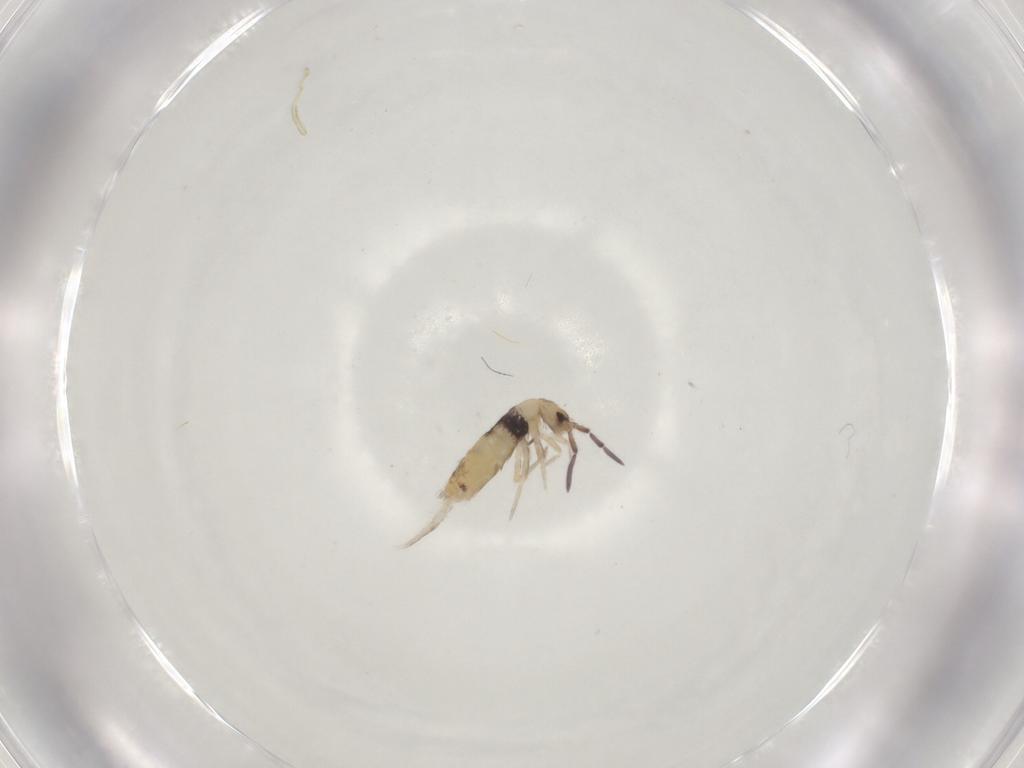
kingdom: Animalia
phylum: Arthropoda
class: Collembola
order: Entomobryomorpha
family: Entomobryidae
